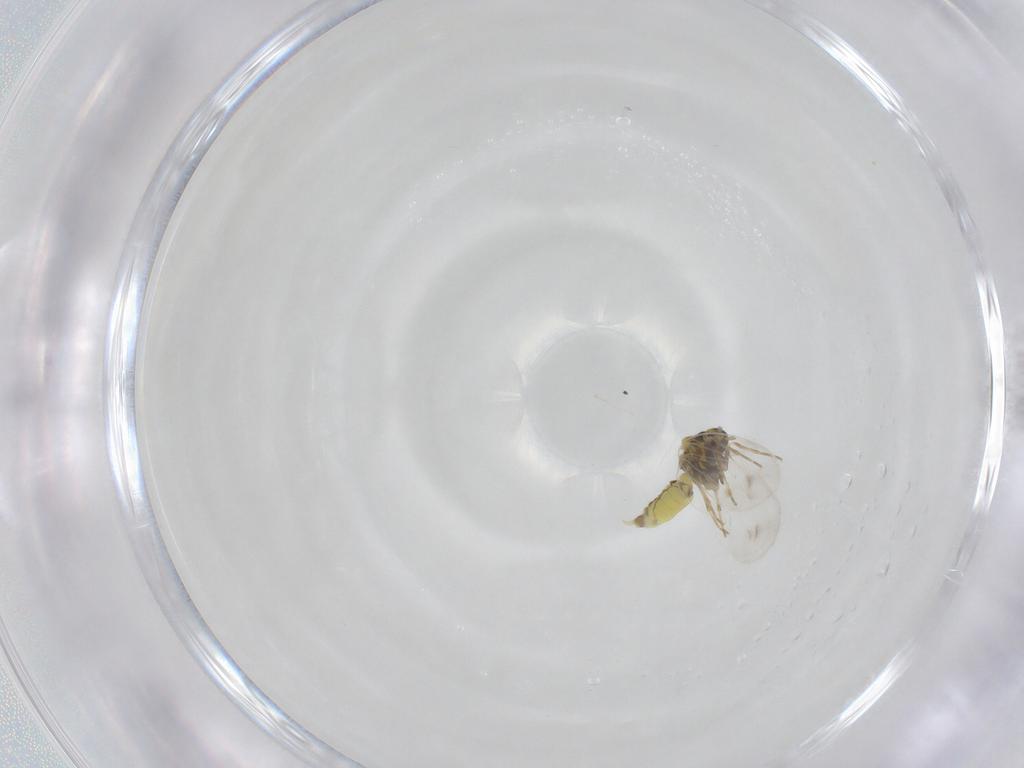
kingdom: Animalia
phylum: Arthropoda
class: Insecta
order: Hemiptera
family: Aleyrodidae
